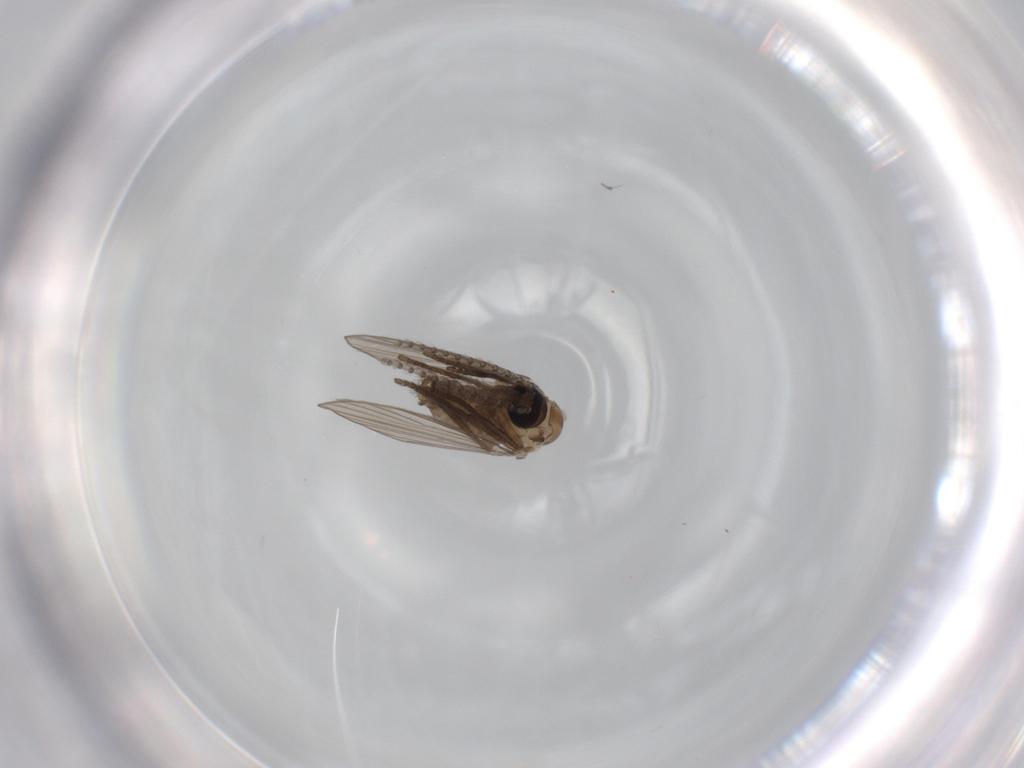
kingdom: Animalia
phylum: Arthropoda
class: Insecta
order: Diptera
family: Psychodidae
